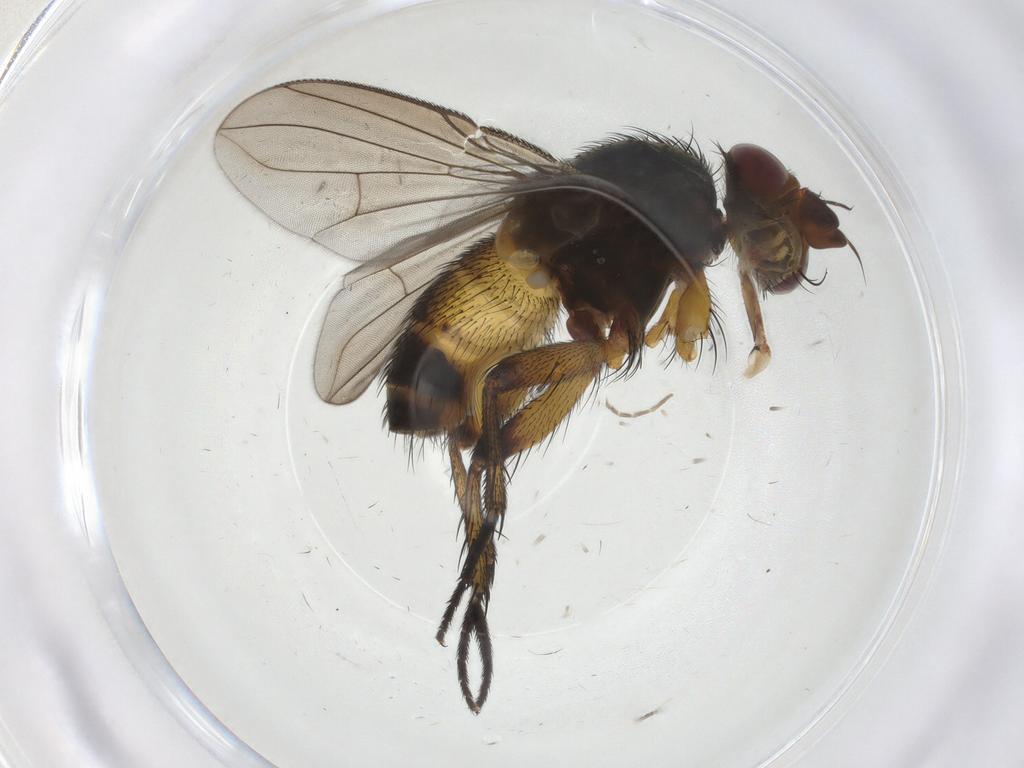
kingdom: Animalia
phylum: Arthropoda
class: Insecta
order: Diptera
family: Ceratopogonidae
